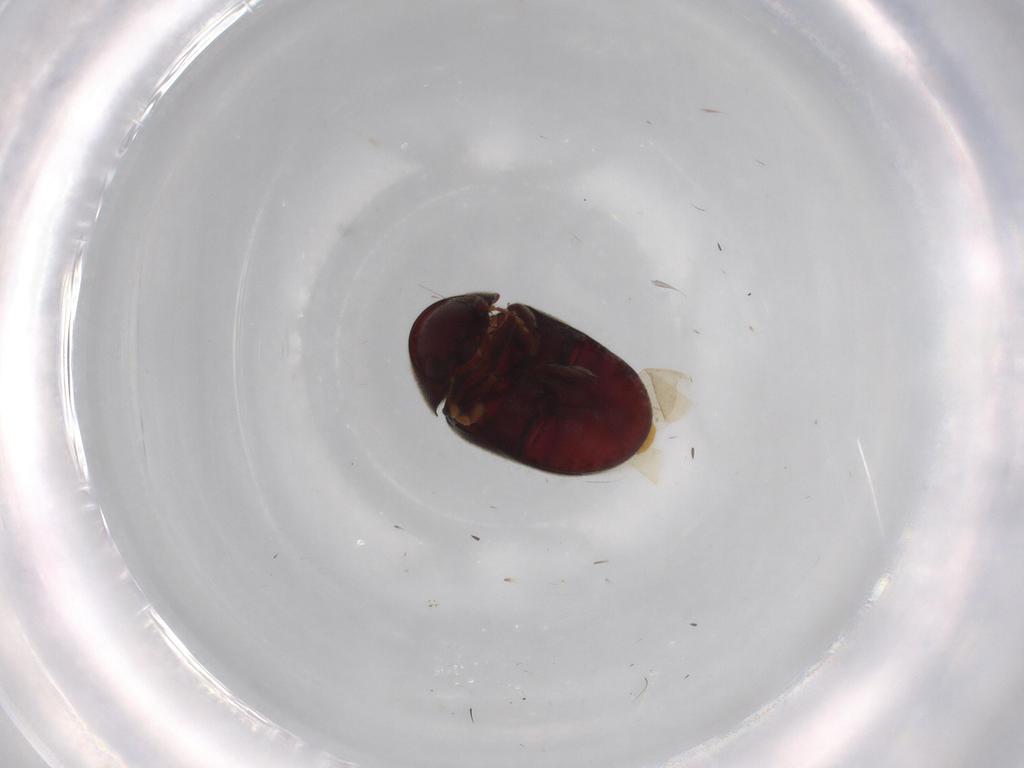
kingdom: Animalia
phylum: Arthropoda
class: Insecta
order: Coleoptera
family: Ptinidae
